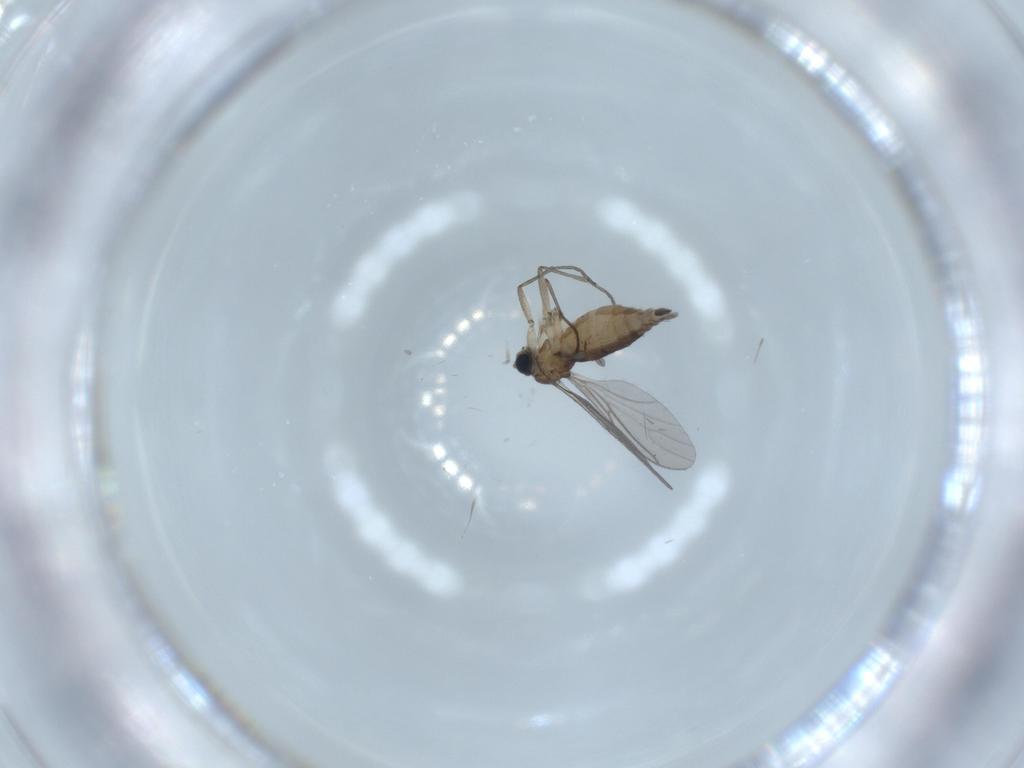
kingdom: Animalia
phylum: Arthropoda
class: Insecta
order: Diptera
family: Sciaridae
